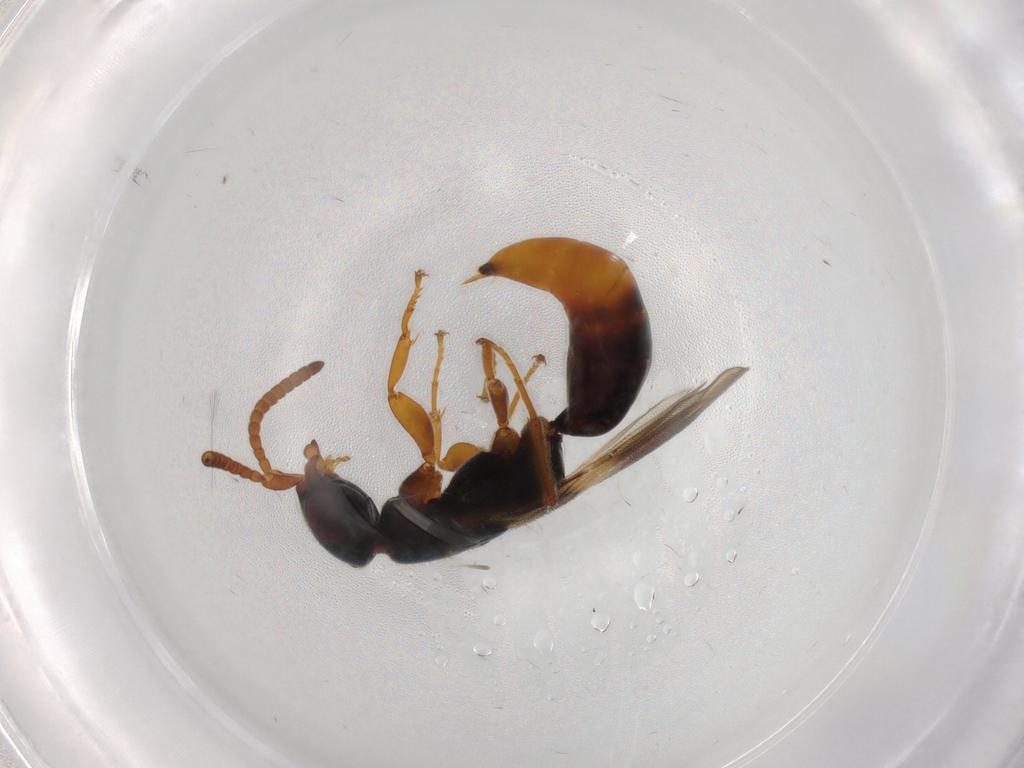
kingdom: Animalia
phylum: Arthropoda
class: Insecta
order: Hymenoptera
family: Bethylidae
